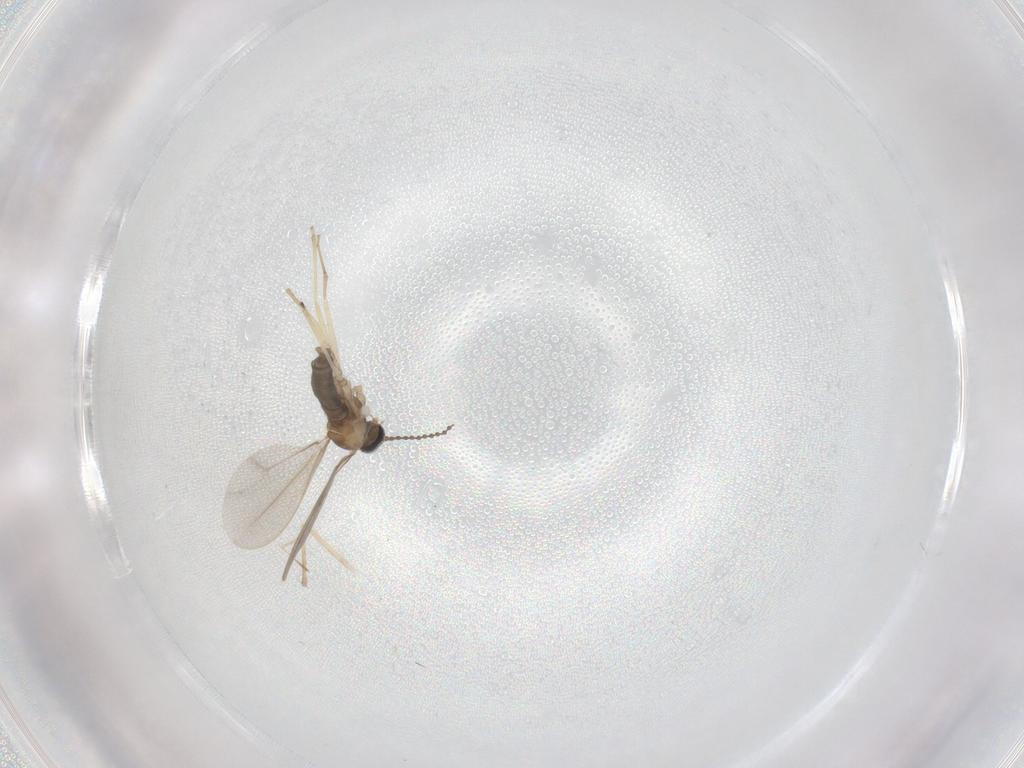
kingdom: Animalia
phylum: Arthropoda
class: Insecta
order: Diptera
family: Cecidomyiidae
